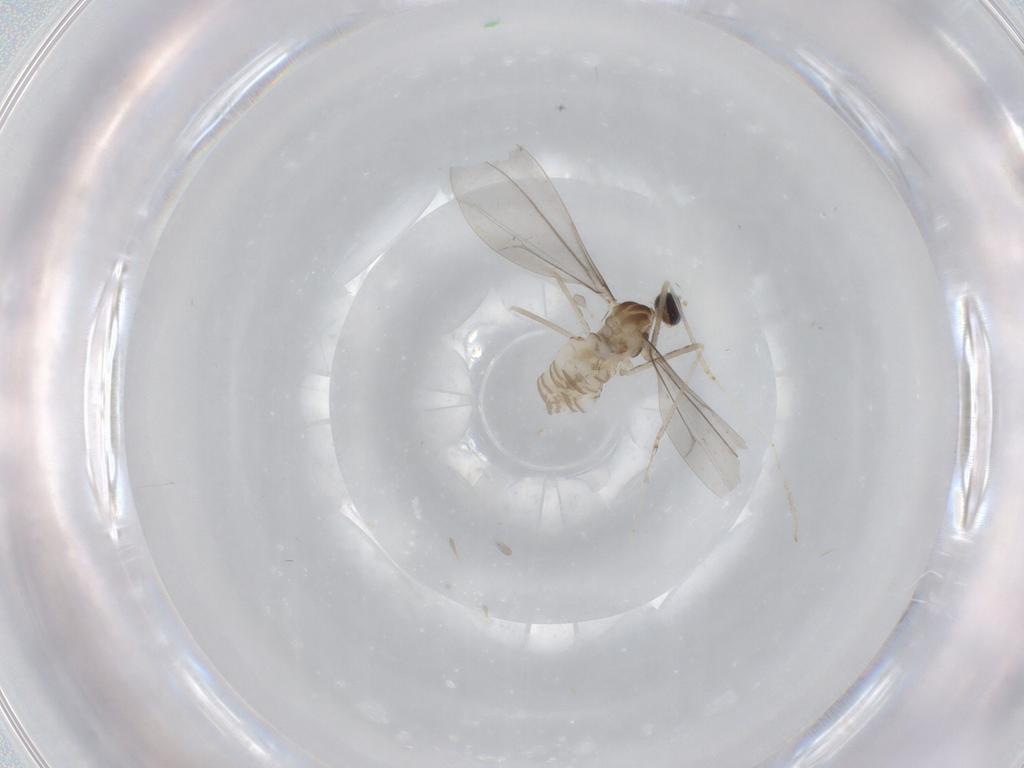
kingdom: Animalia
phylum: Arthropoda
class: Insecta
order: Diptera
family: Cecidomyiidae
